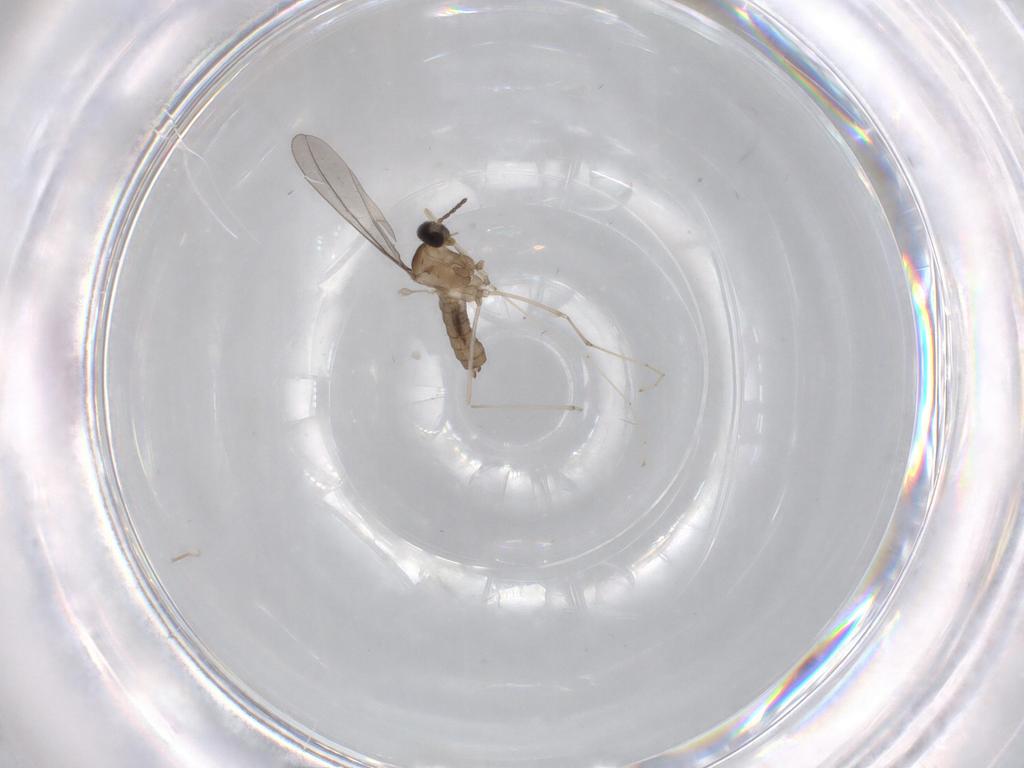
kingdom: Animalia
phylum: Arthropoda
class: Insecta
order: Diptera
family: Cecidomyiidae
